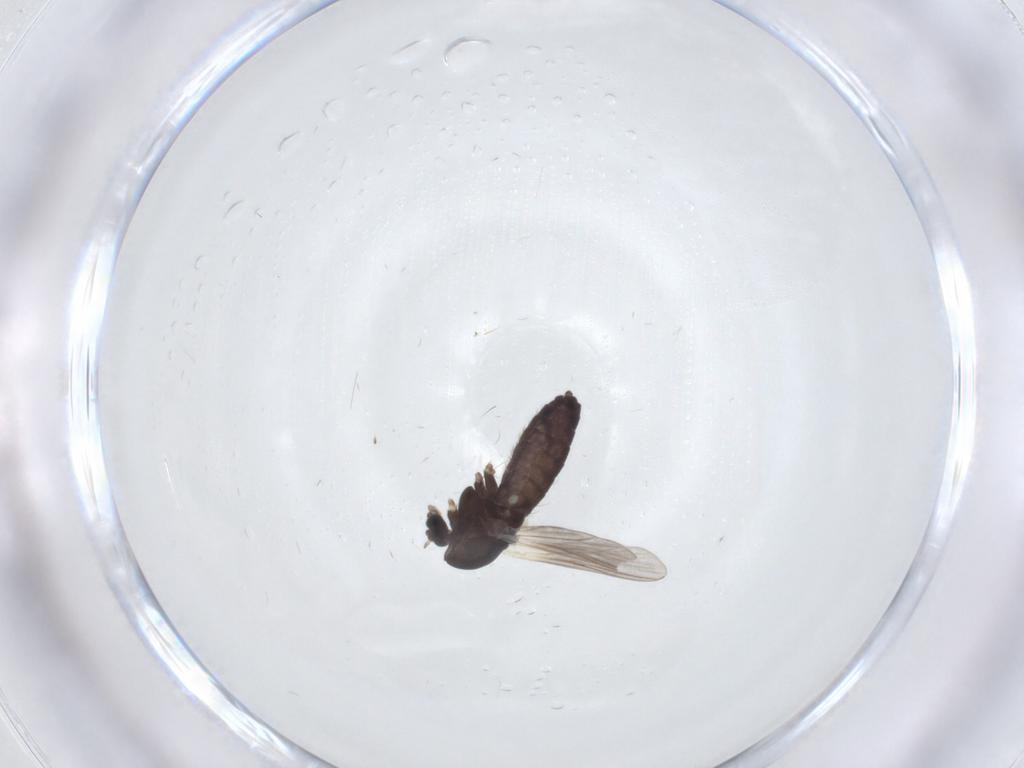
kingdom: Animalia
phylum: Arthropoda
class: Insecta
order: Diptera
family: Chironomidae
